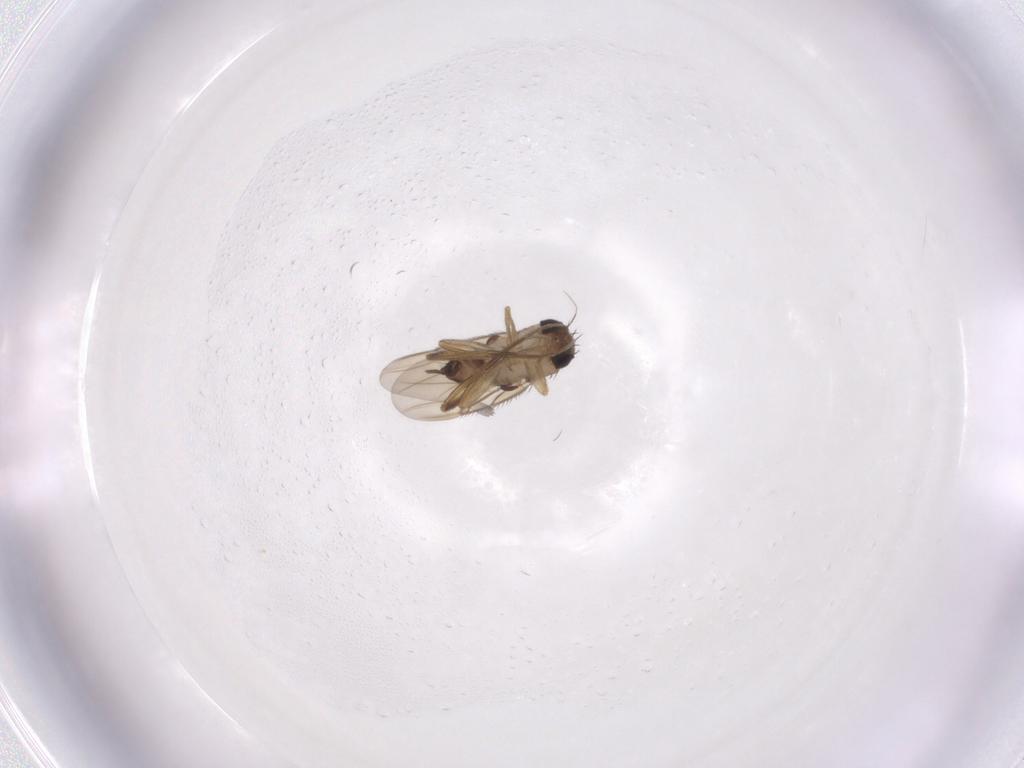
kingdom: Animalia
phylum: Arthropoda
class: Insecta
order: Diptera
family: Phoridae
